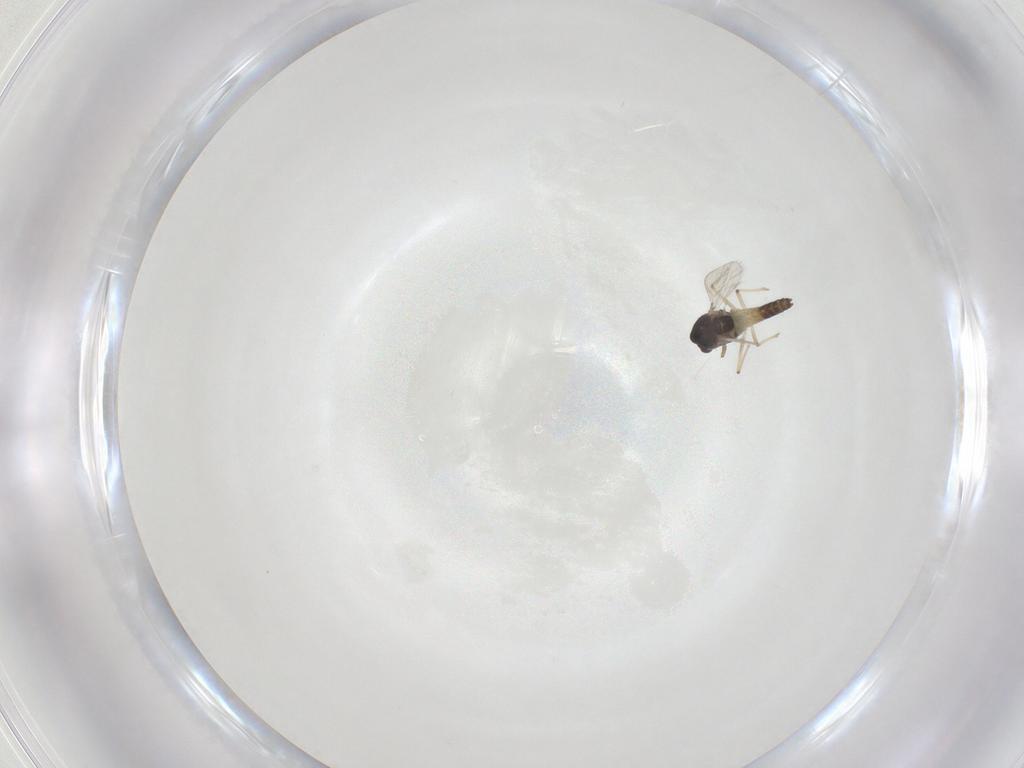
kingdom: Animalia
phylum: Arthropoda
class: Insecta
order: Diptera
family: Chironomidae
